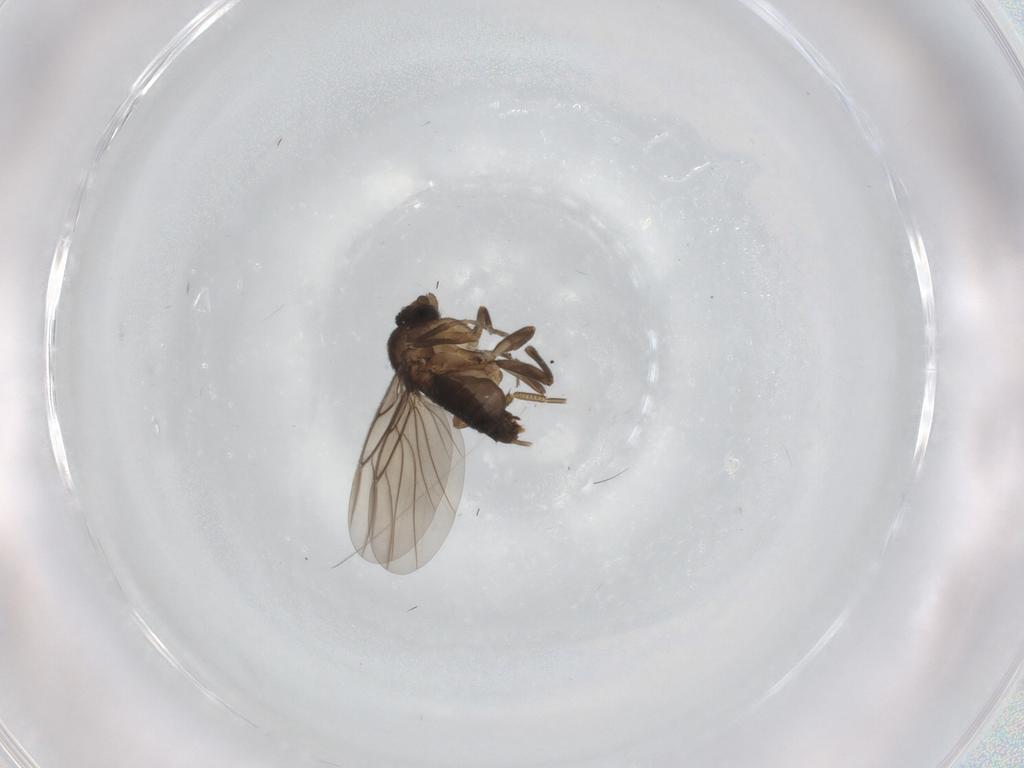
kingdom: Animalia
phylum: Arthropoda
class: Insecta
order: Diptera
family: Phoridae
